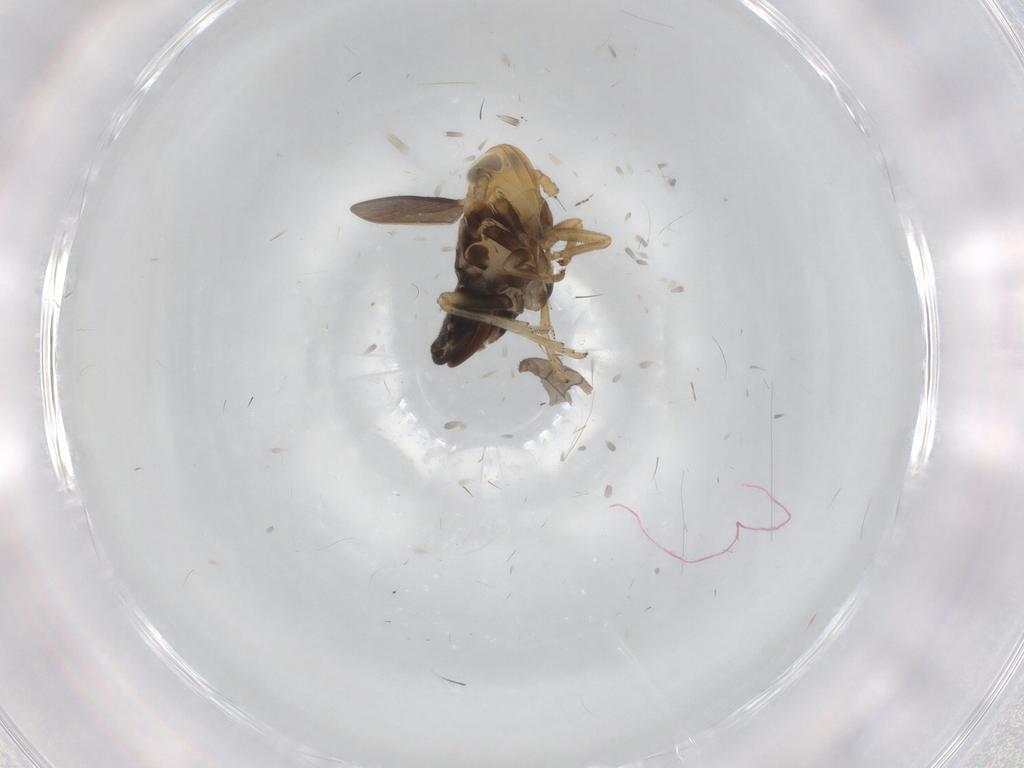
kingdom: Animalia
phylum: Arthropoda
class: Insecta
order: Hemiptera
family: Delphacidae
